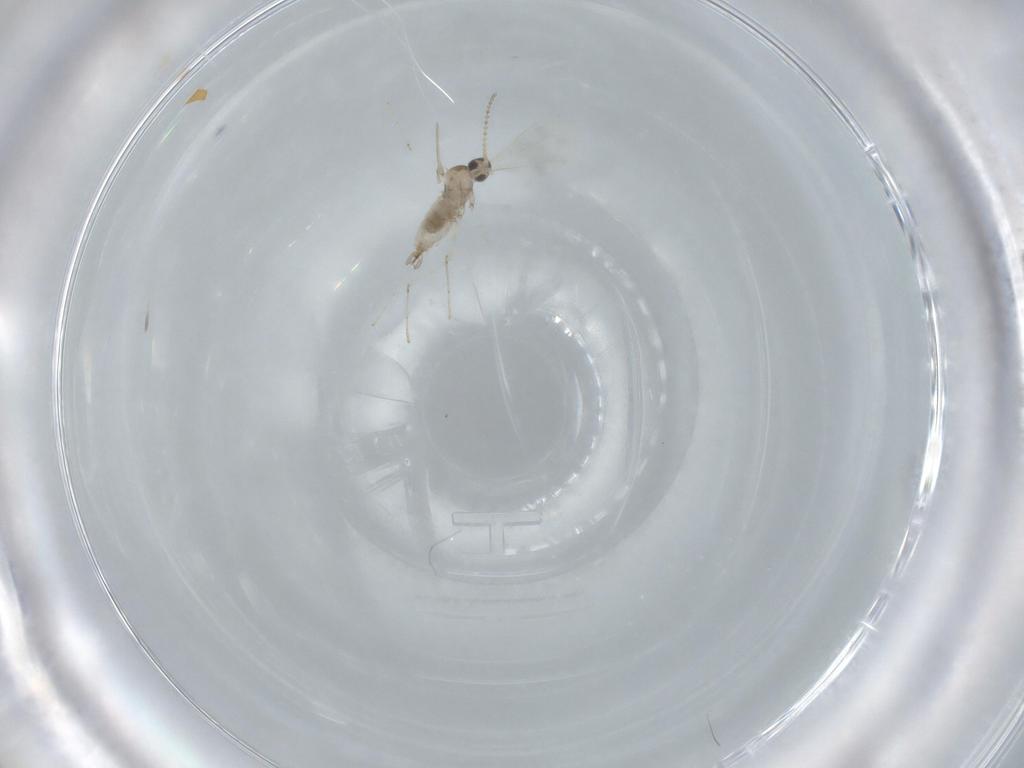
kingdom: Animalia
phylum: Arthropoda
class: Insecta
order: Diptera
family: Cecidomyiidae
